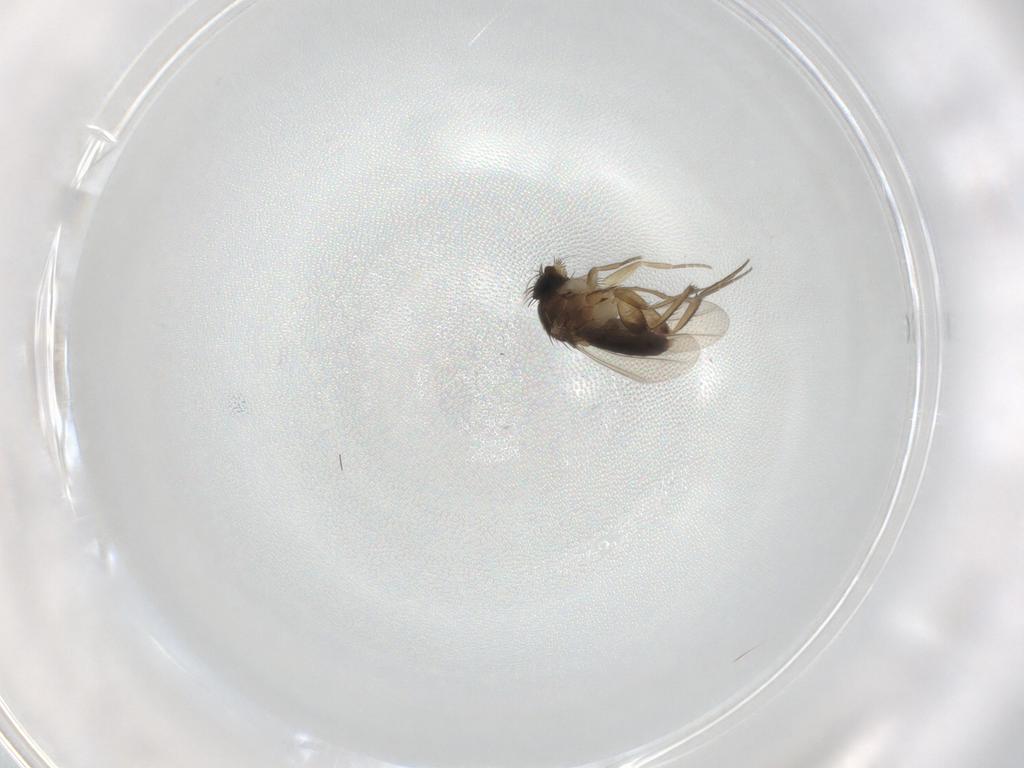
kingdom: Animalia
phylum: Arthropoda
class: Insecta
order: Diptera
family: Phoridae
